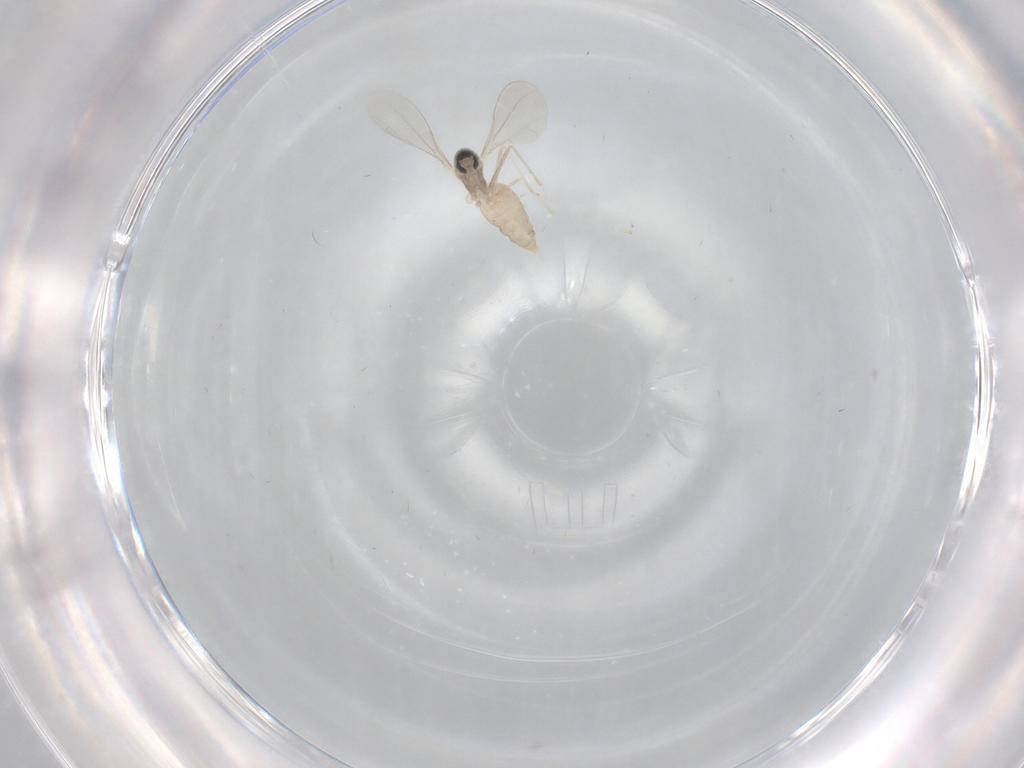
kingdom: Animalia
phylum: Arthropoda
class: Insecta
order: Diptera
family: Cecidomyiidae
